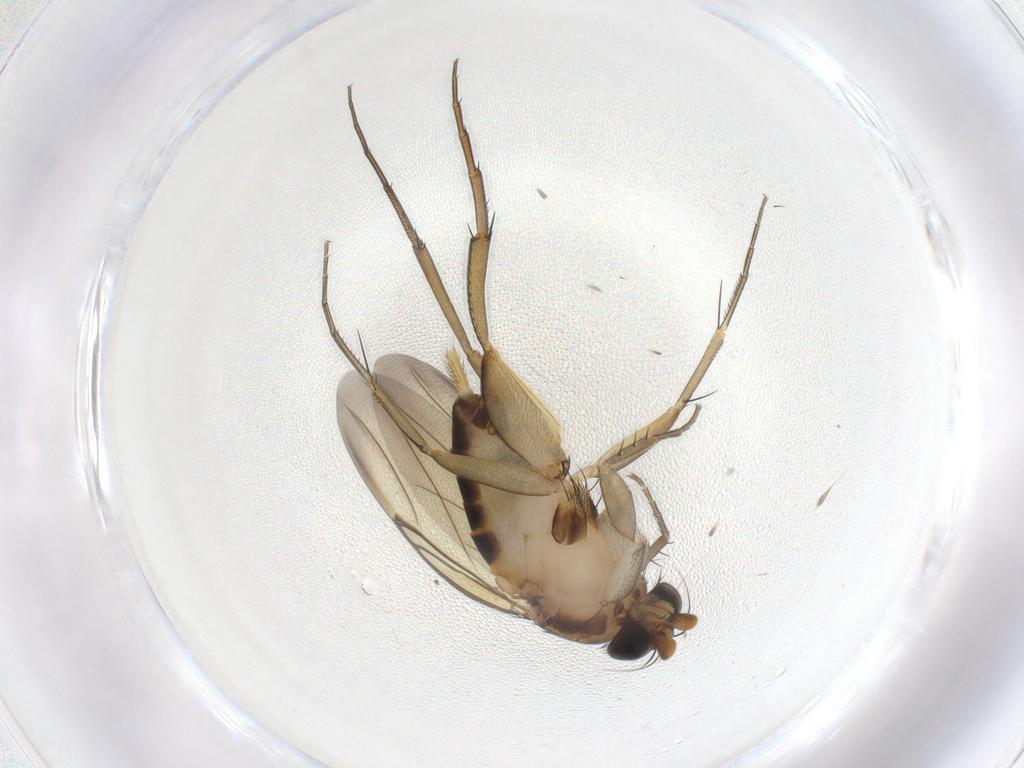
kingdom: Animalia
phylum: Arthropoda
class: Insecta
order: Diptera
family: Phoridae
